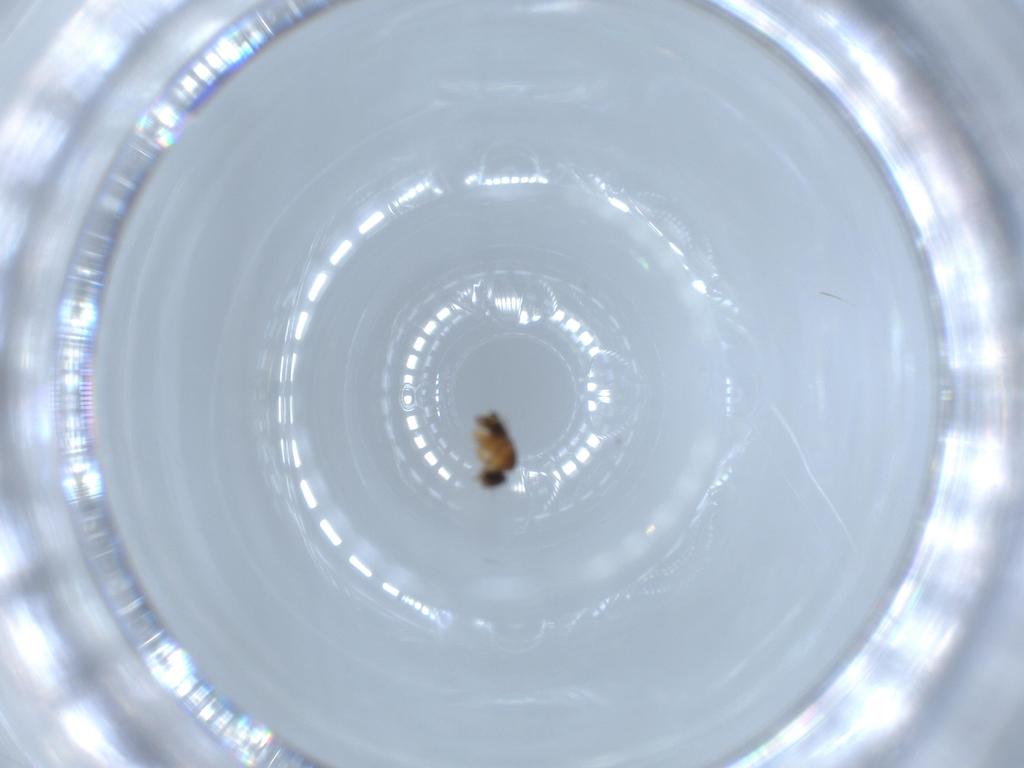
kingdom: Animalia
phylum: Arthropoda
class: Insecta
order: Diptera
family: Phoridae
